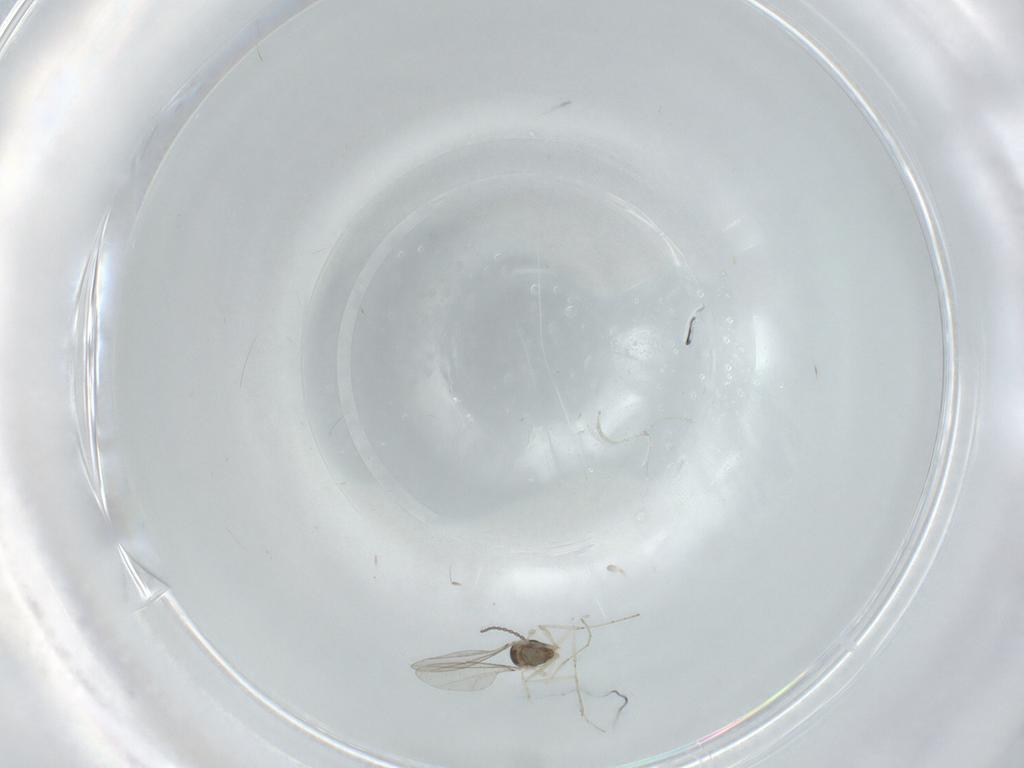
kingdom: Animalia
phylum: Arthropoda
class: Insecta
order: Diptera
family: Cecidomyiidae
